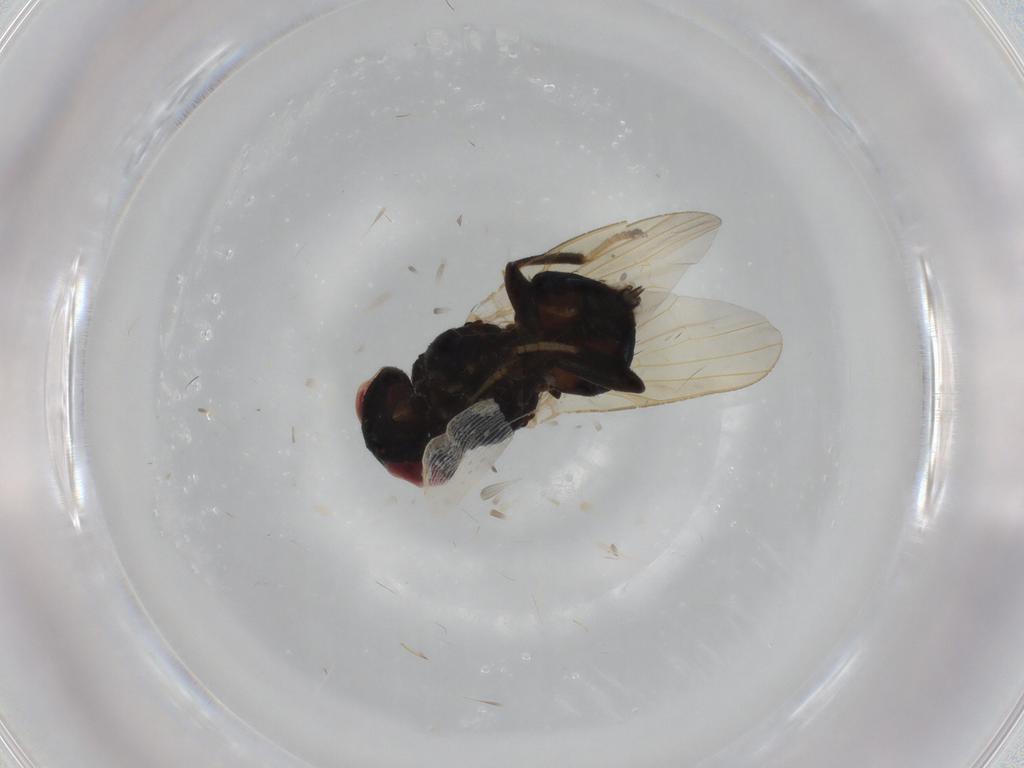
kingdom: Animalia
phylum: Arthropoda
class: Insecta
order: Diptera
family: Lonchaeidae
